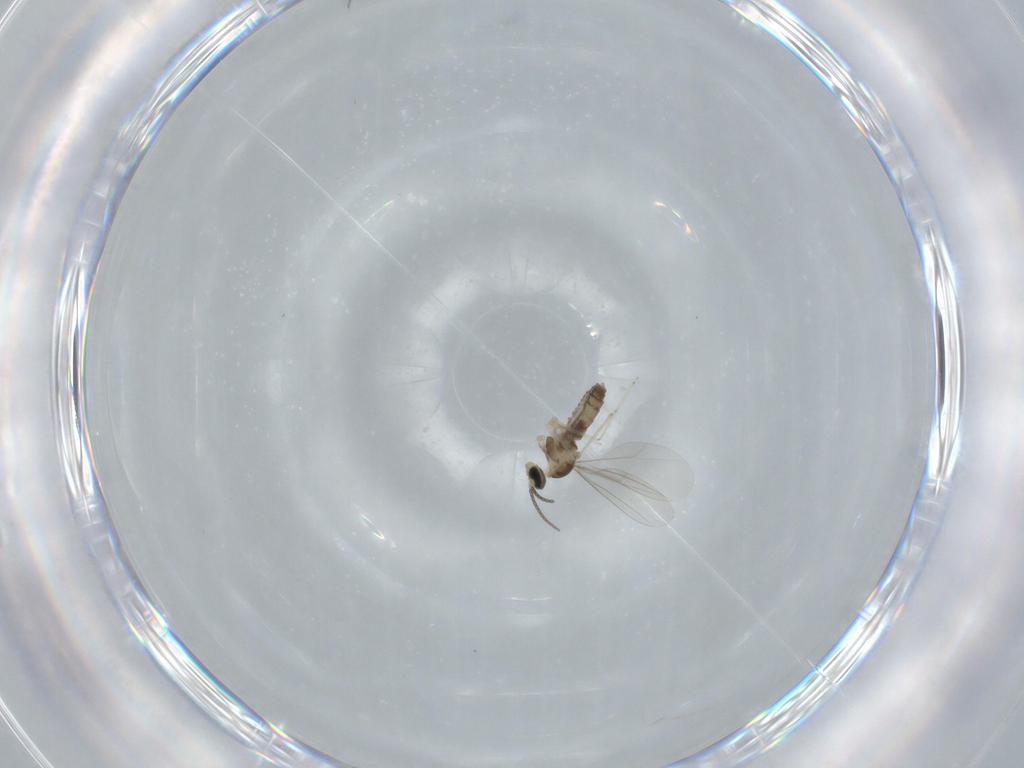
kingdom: Animalia
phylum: Arthropoda
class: Insecta
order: Diptera
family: Cecidomyiidae
